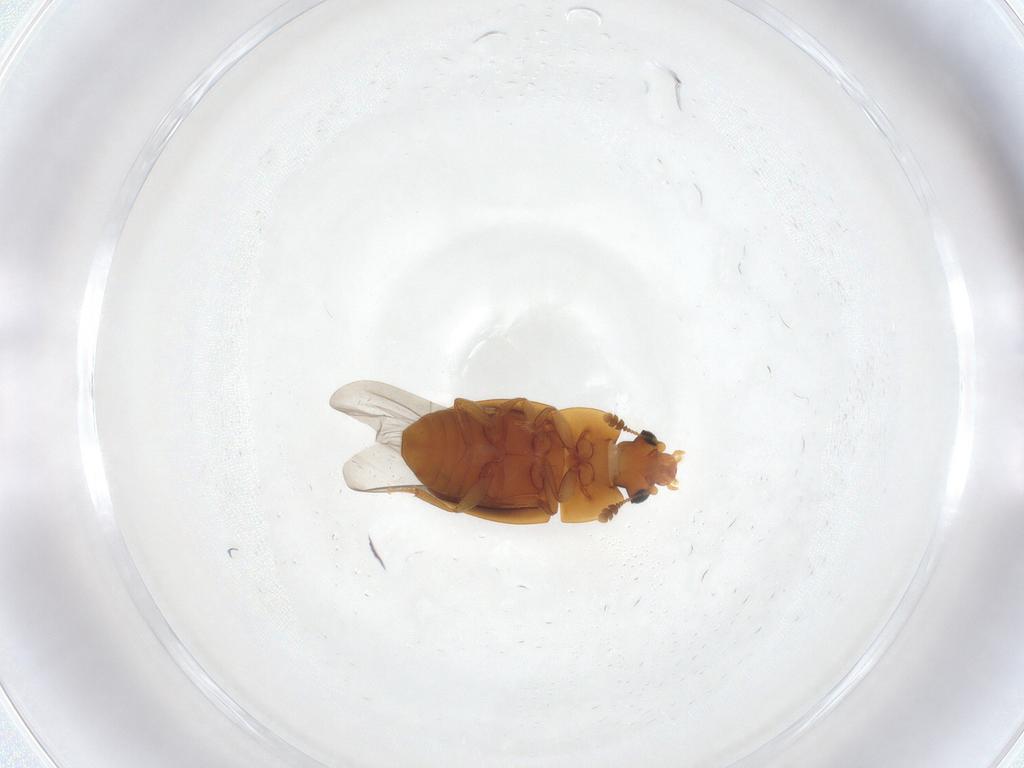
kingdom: Animalia
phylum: Arthropoda
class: Insecta
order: Coleoptera
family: Nitidulidae
